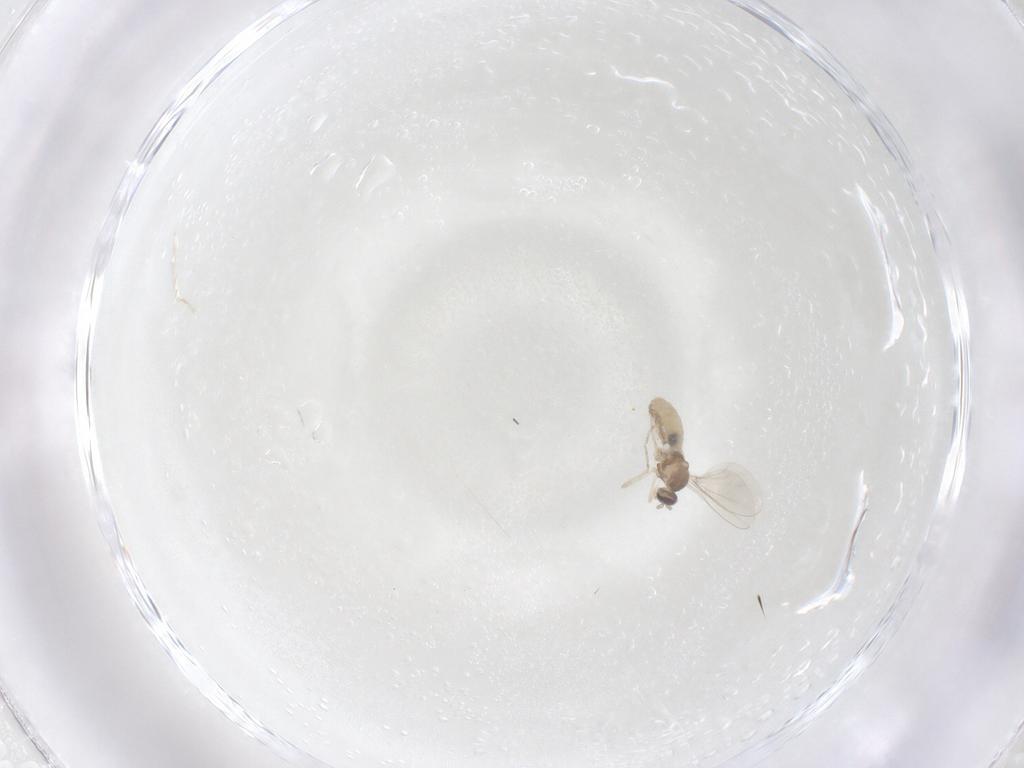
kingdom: Animalia
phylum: Arthropoda
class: Insecta
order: Diptera
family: Cecidomyiidae
